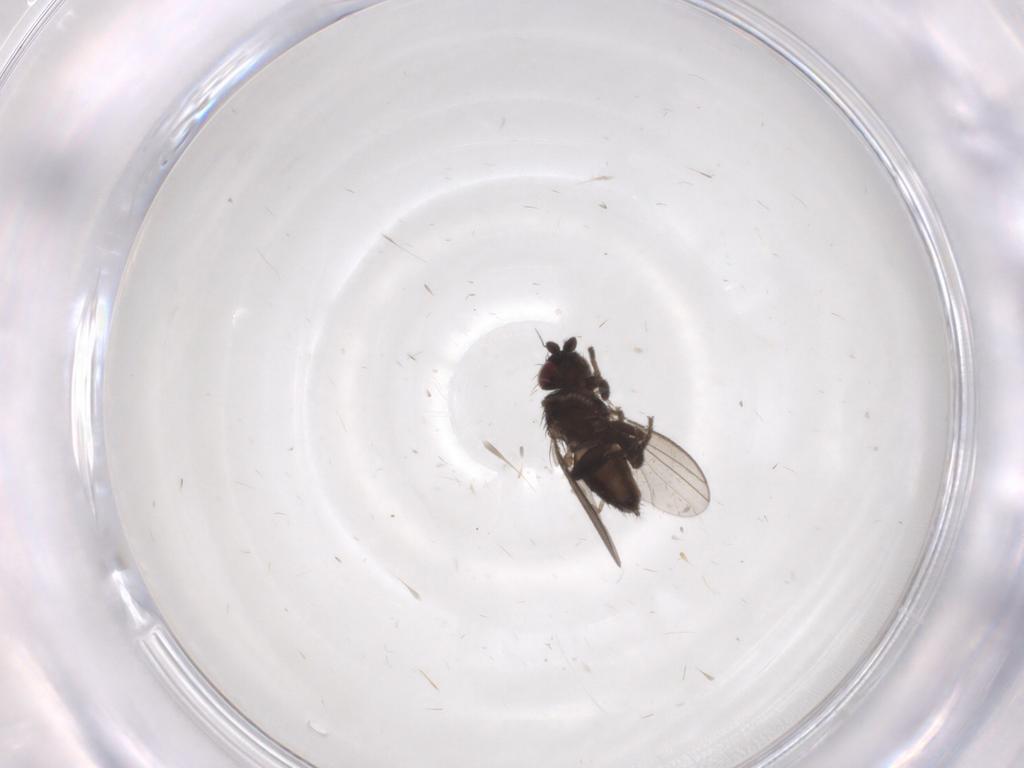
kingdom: Animalia
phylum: Arthropoda
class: Insecta
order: Diptera
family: Milichiidae
